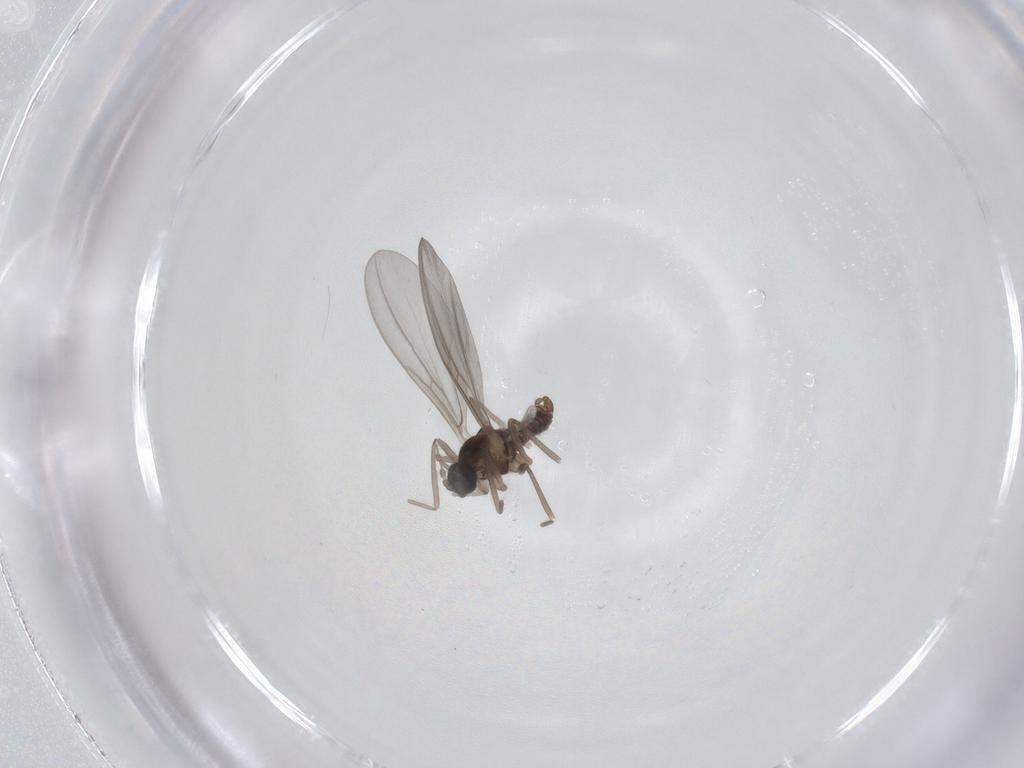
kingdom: Animalia
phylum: Arthropoda
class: Insecta
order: Diptera
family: Cecidomyiidae
